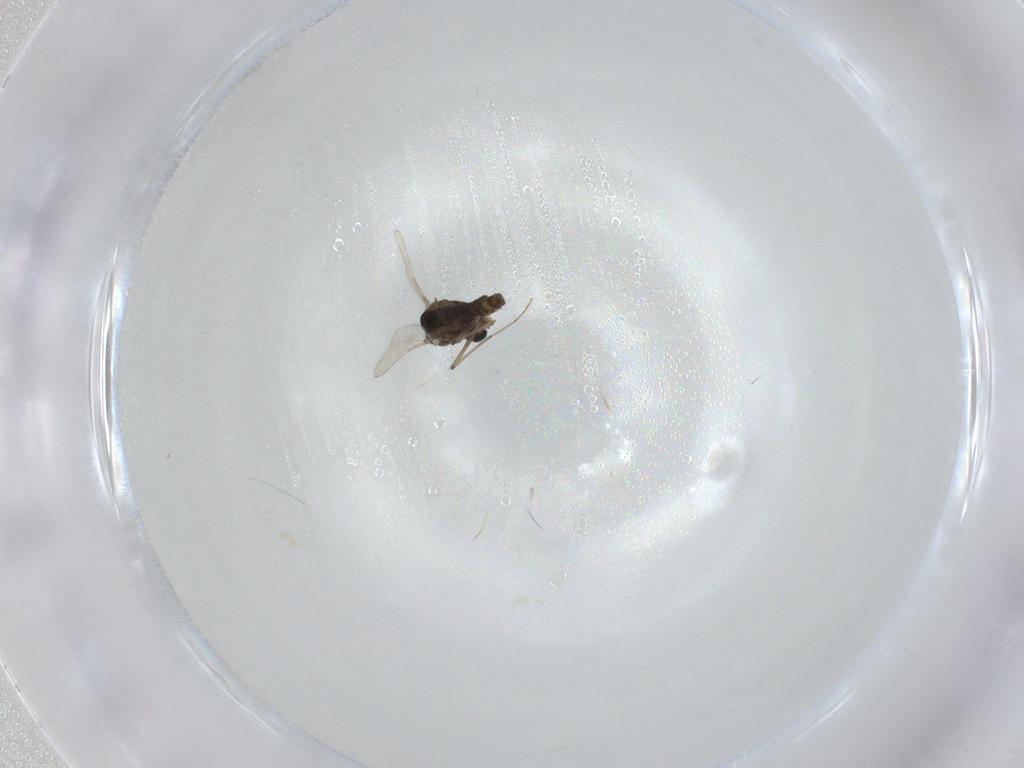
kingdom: Animalia
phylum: Arthropoda
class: Insecta
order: Diptera
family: Chironomidae
